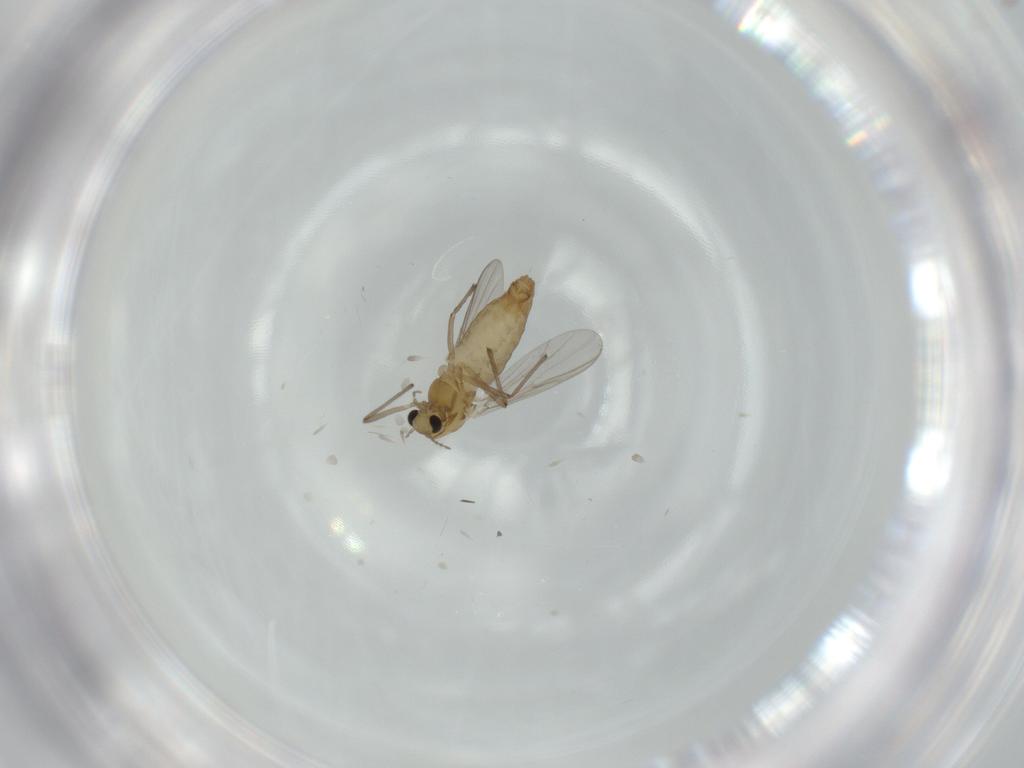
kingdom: Animalia
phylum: Arthropoda
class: Insecta
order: Diptera
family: Chironomidae
